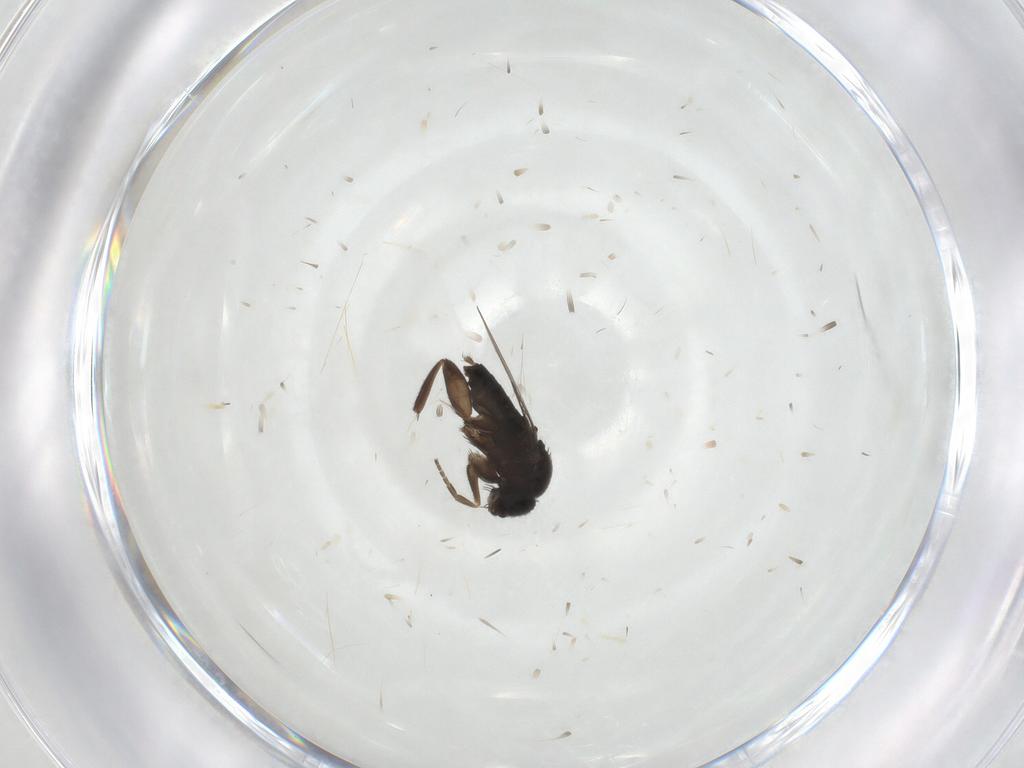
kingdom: Animalia
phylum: Arthropoda
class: Insecta
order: Diptera
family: Phoridae
